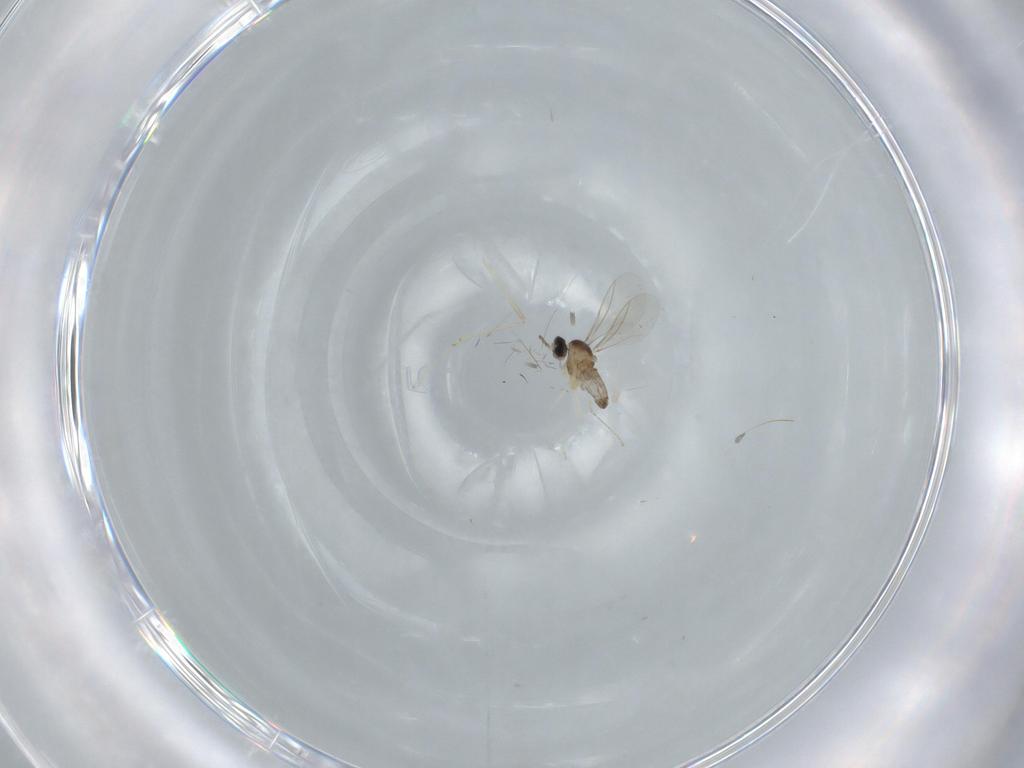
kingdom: Animalia
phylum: Arthropoda
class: Insecta
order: Diptera
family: Cecidomyiidae
